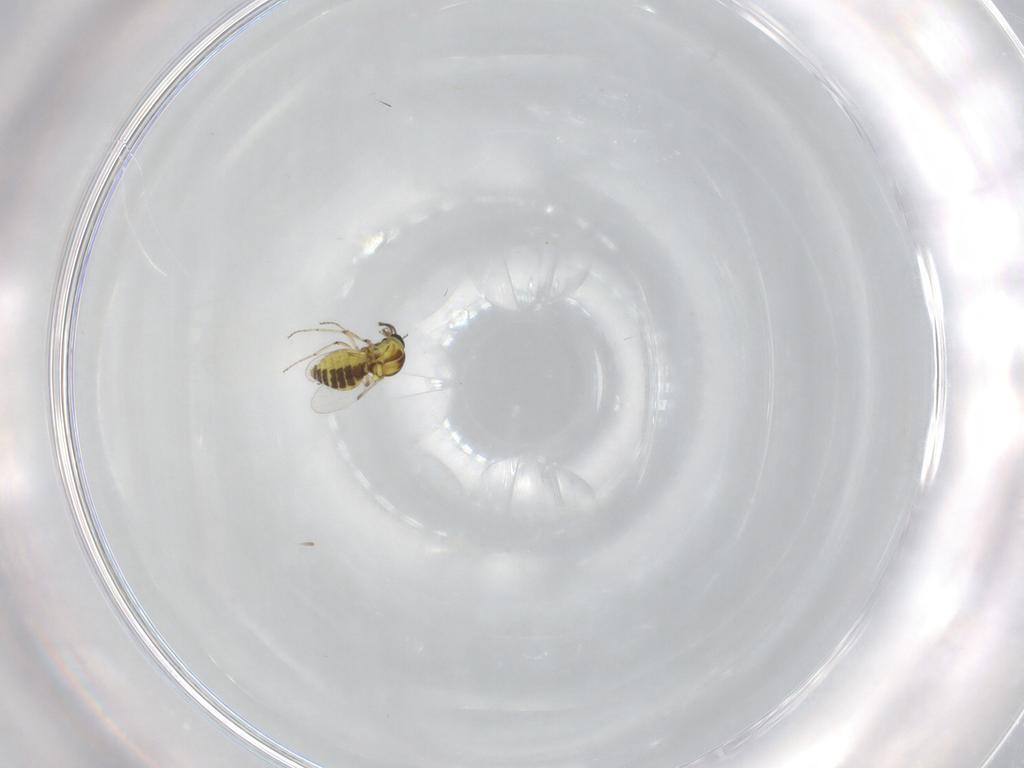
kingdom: Animalia
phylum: Arthropoda
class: Insecta
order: Diptera
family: Ceratopogonidae
